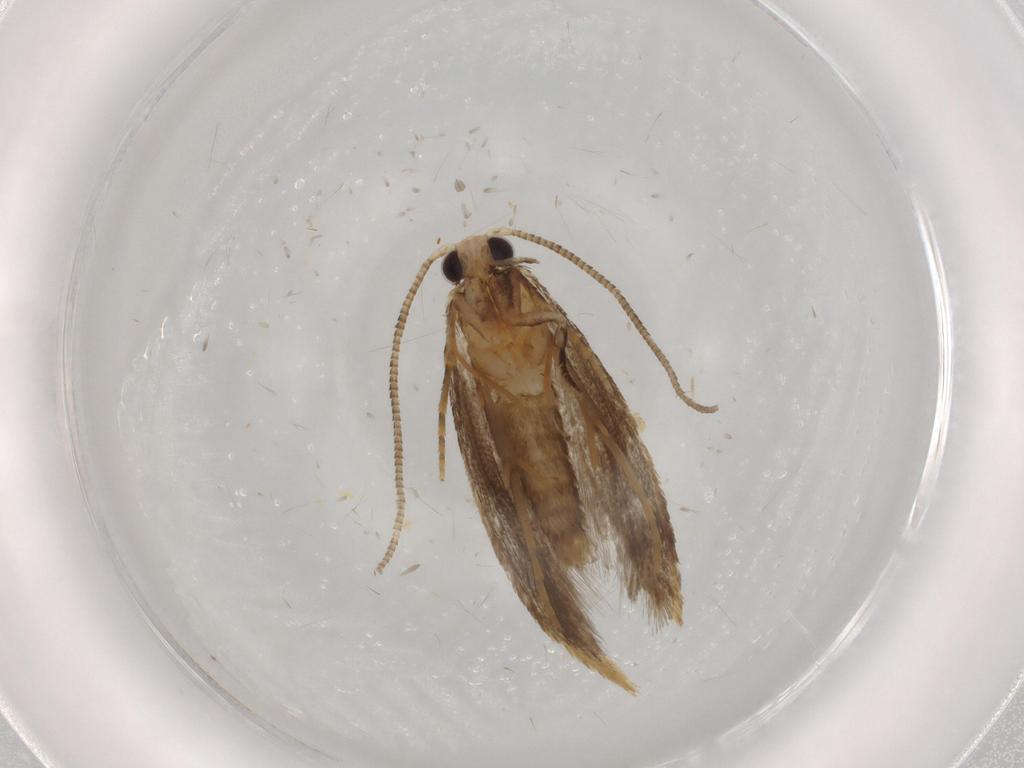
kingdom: Animalia
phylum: Arthropoda
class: Insecta
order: Lepidoptera
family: Tineidae
